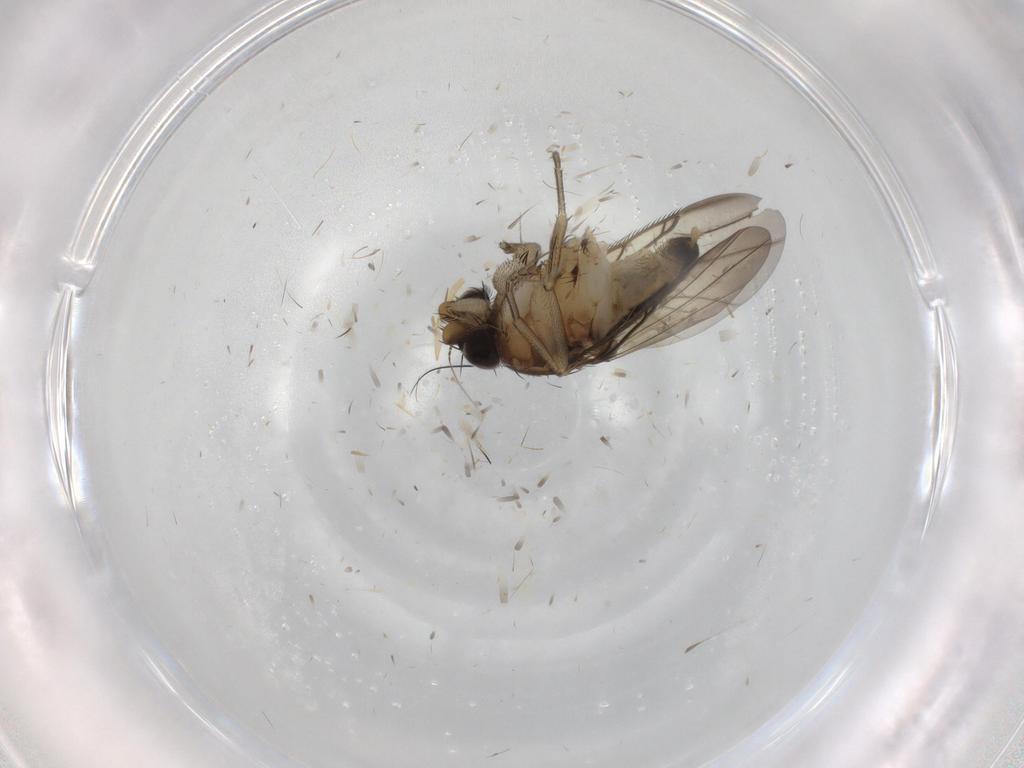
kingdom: Animalia
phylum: Arthropoda
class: Insecta
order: Diptera
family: Phoridae
